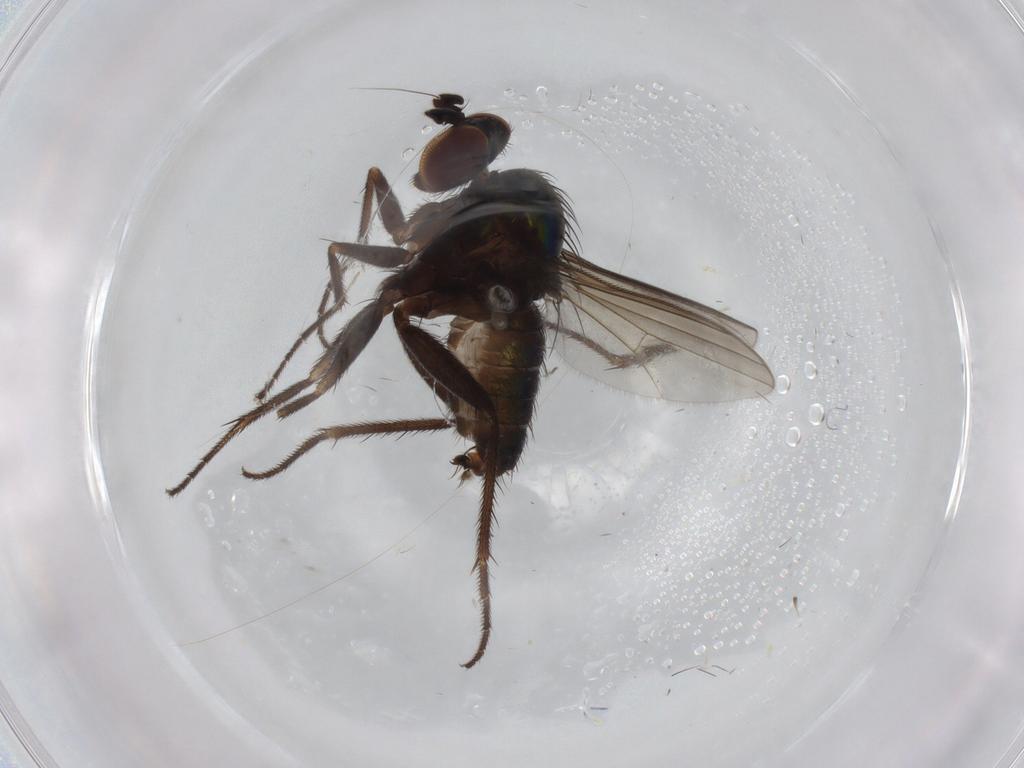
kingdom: Animalia
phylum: Arthropoda
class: Insecta
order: Diptera
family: Dolichopodidae
